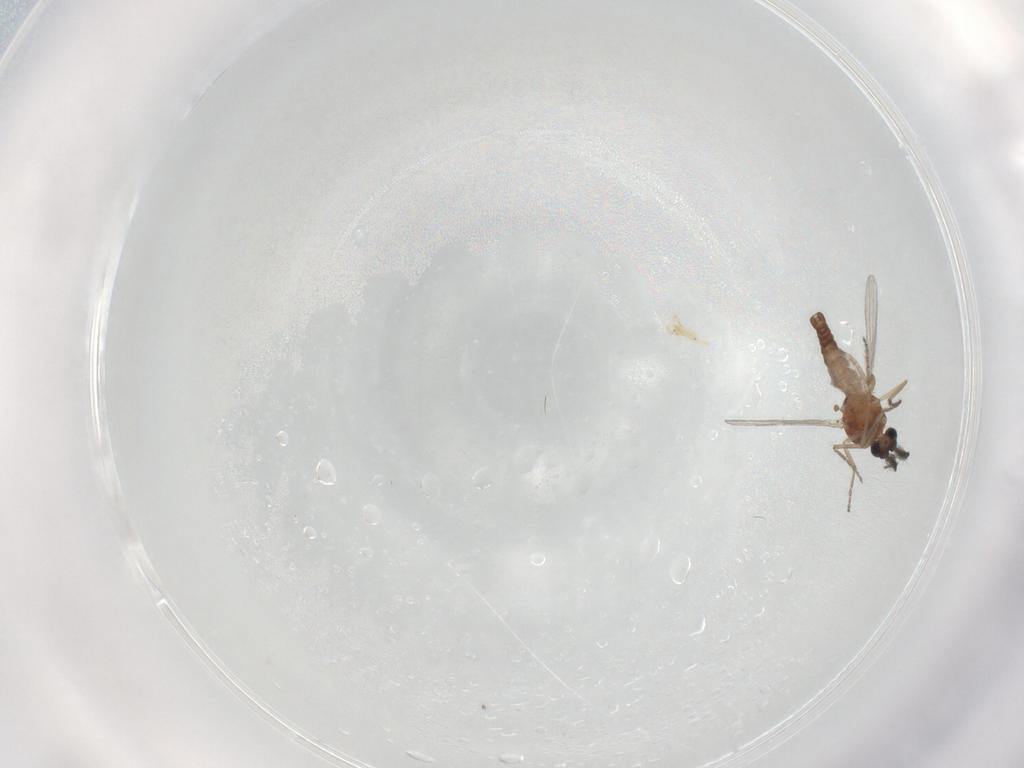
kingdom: Animalia
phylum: Arthropoda
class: Insecta
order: Diptera
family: Ceratopogonidae
